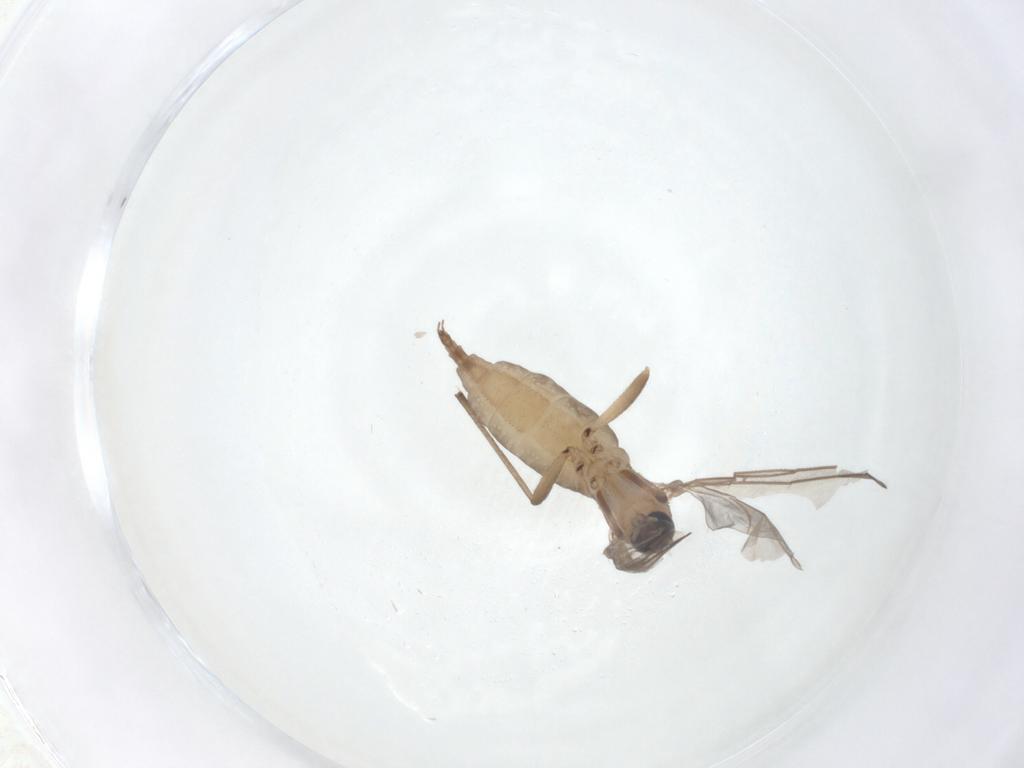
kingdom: Animalia
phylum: Arthropoda
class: Insecta
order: Diptera
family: Sciaridae
